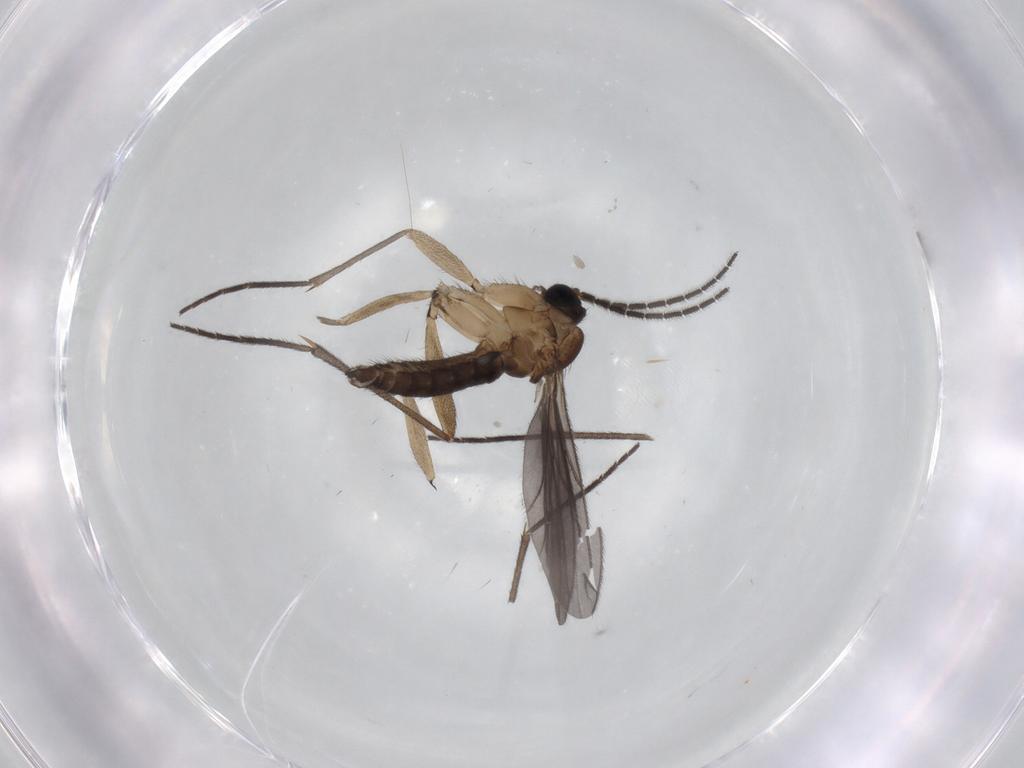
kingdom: Animalia
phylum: Arthropoda
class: Insecta
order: Diptera
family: Sciaridae
